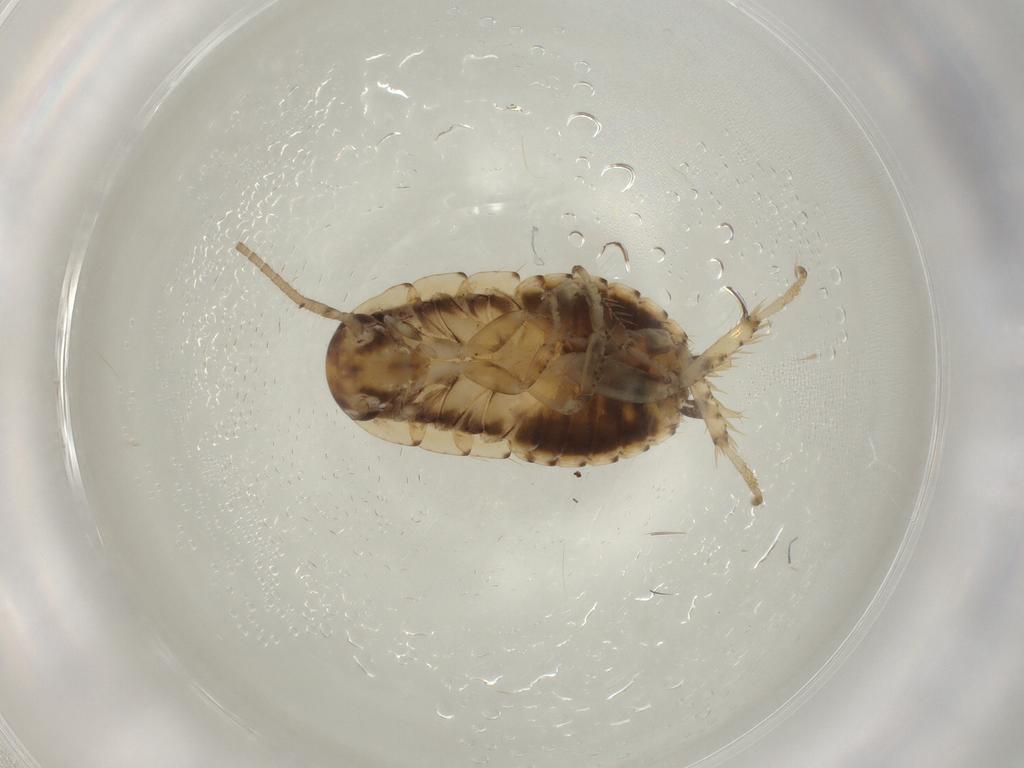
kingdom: Animalia
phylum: Arthropoda
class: Insecta
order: Blattodea
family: Blaberidae
